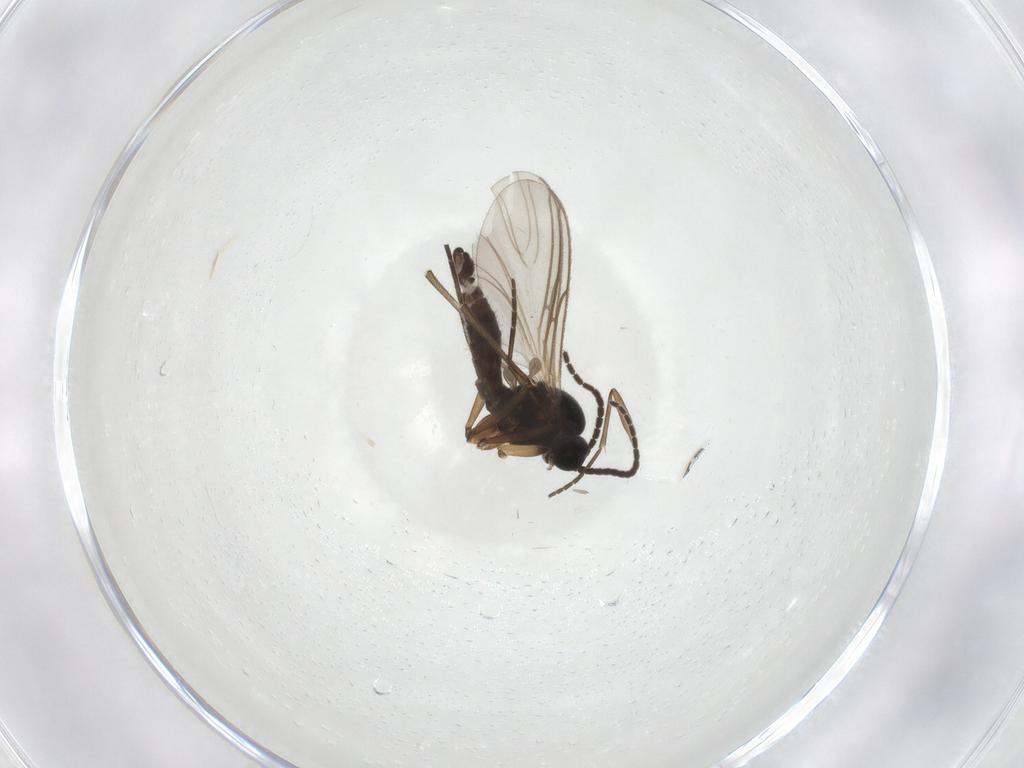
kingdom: Animalia
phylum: Arthropoda
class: Insecta
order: Diptera
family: Sciaridae
